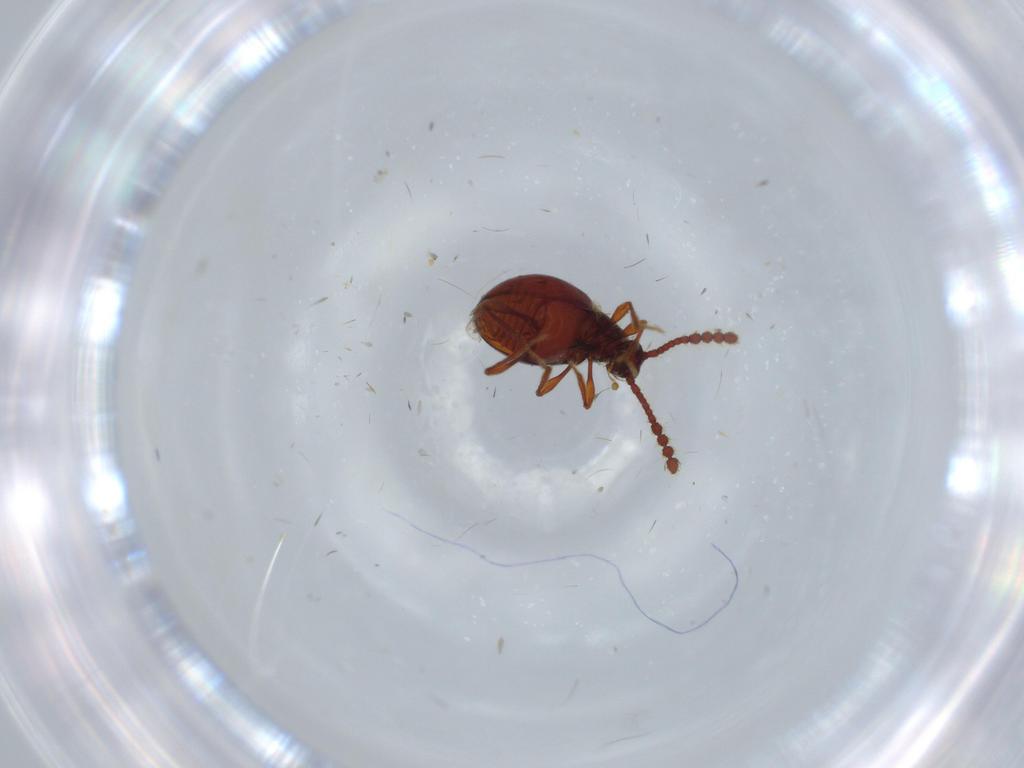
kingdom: Animalia
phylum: Arthropoda
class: Insecta
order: Coleoptera
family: Staphylinidae
